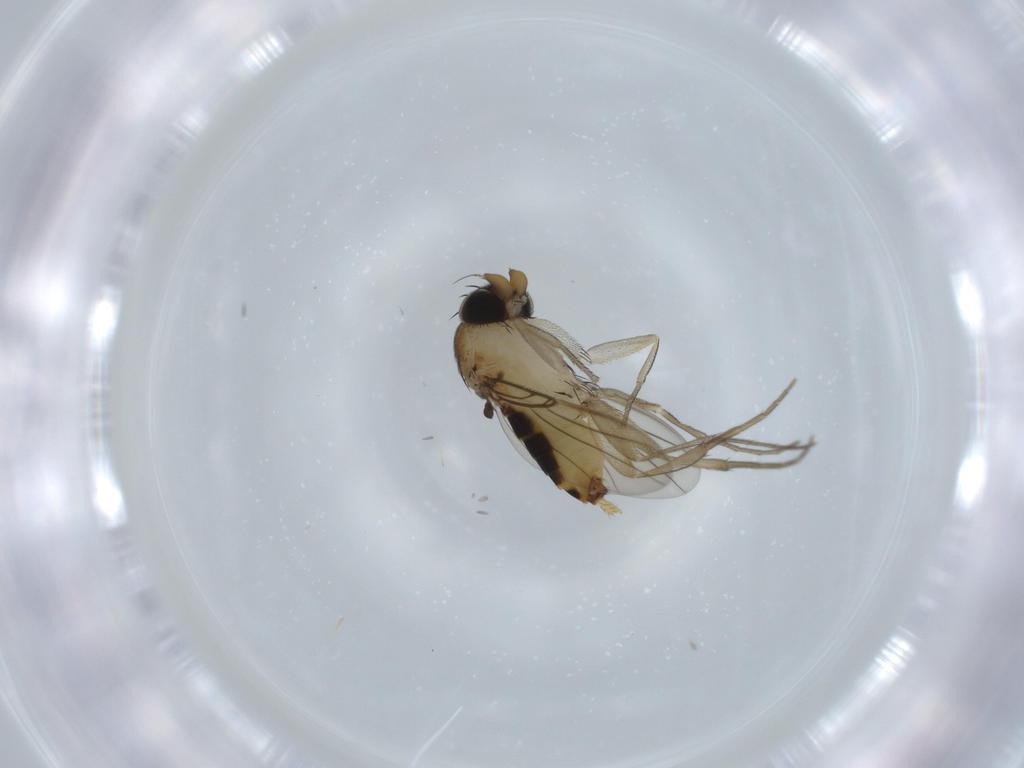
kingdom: Animalia
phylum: Arthropoda
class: Insecta
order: Diptera
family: Phoridae
